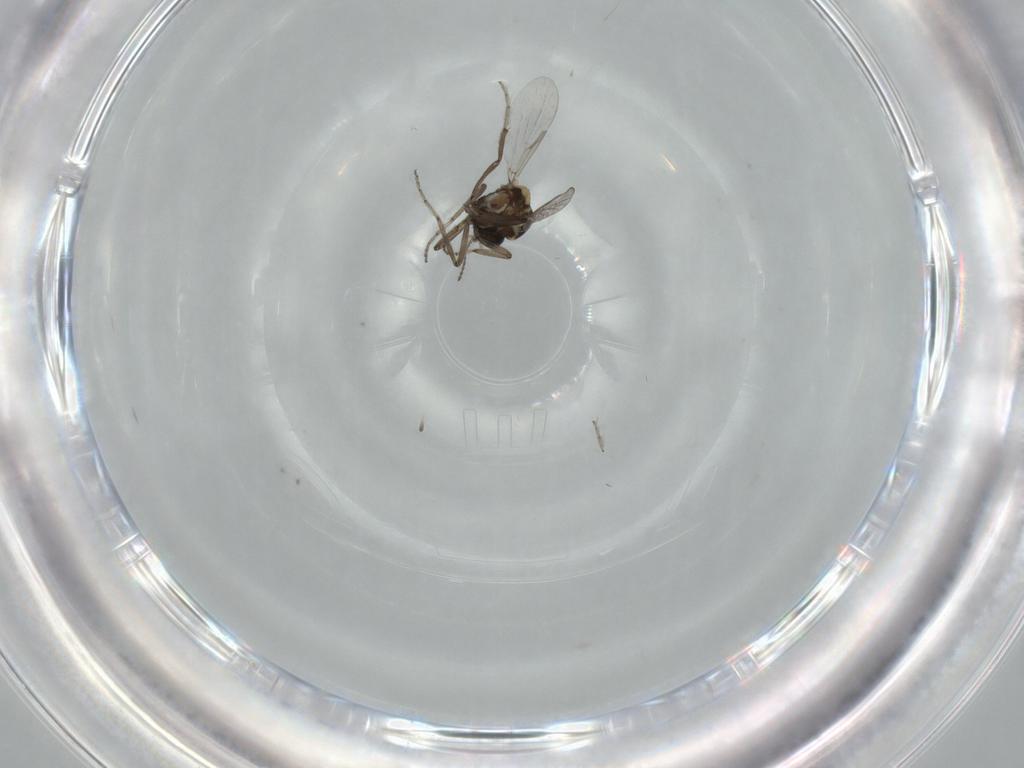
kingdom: Animalia
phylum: Arthropoda
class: Insecta
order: Diptera
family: Ceratopogonidae
